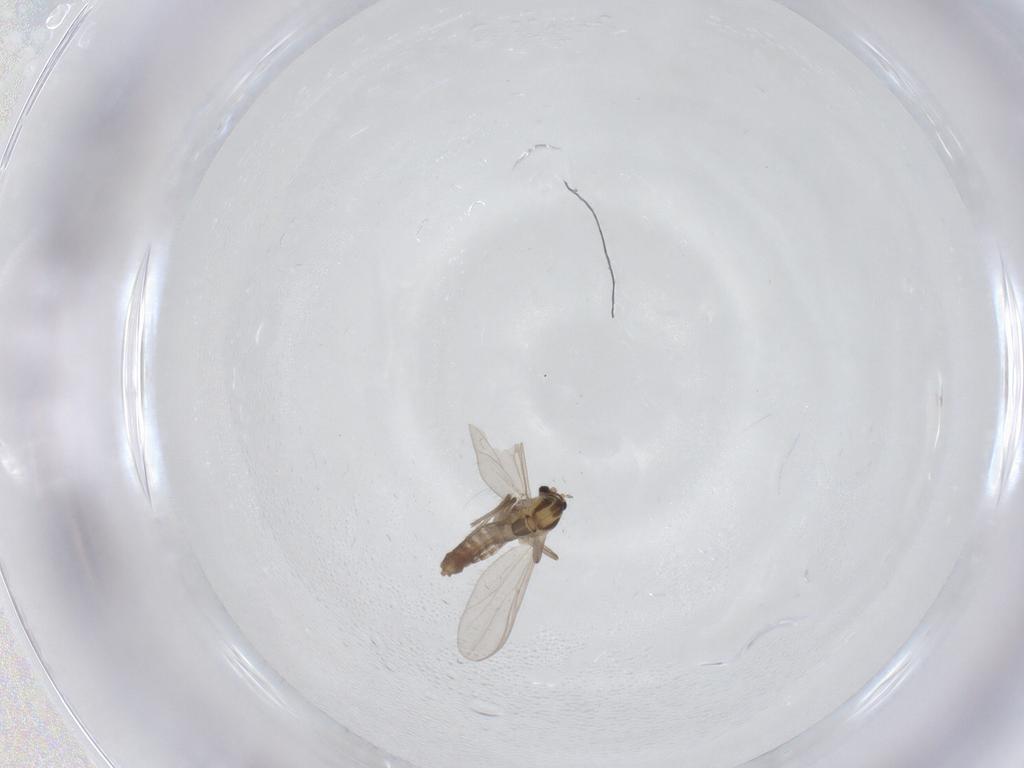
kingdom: Animalia
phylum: Arthropoda
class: Insecta
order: Diptera
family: Chironomidae
